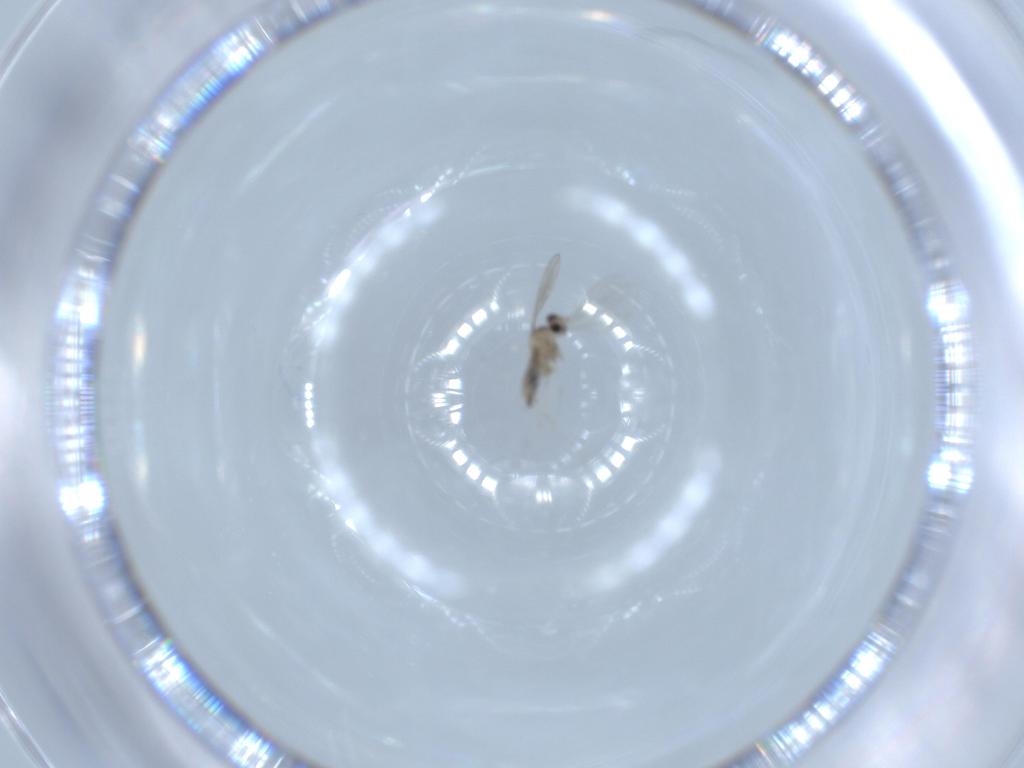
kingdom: Animalia
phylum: Arthropoda
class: Insecta
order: Diptera
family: Cecidomyiidae
